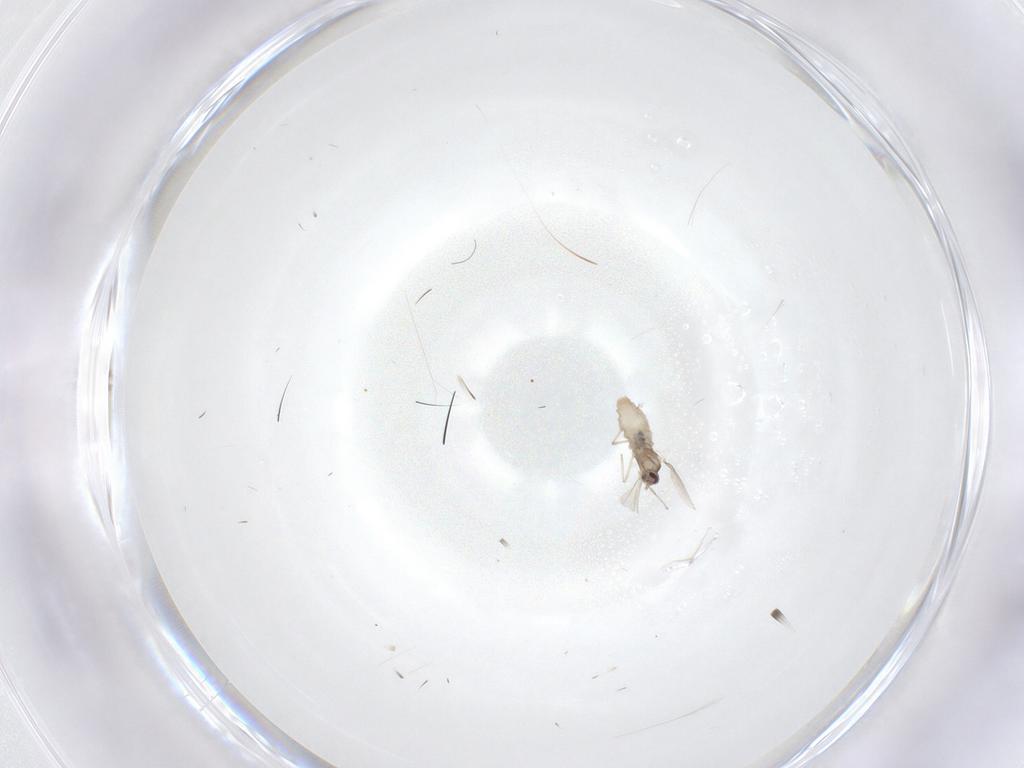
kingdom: Animalia
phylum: Arthropoda
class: Insecta
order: Diptera
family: Cecidomyiidae
